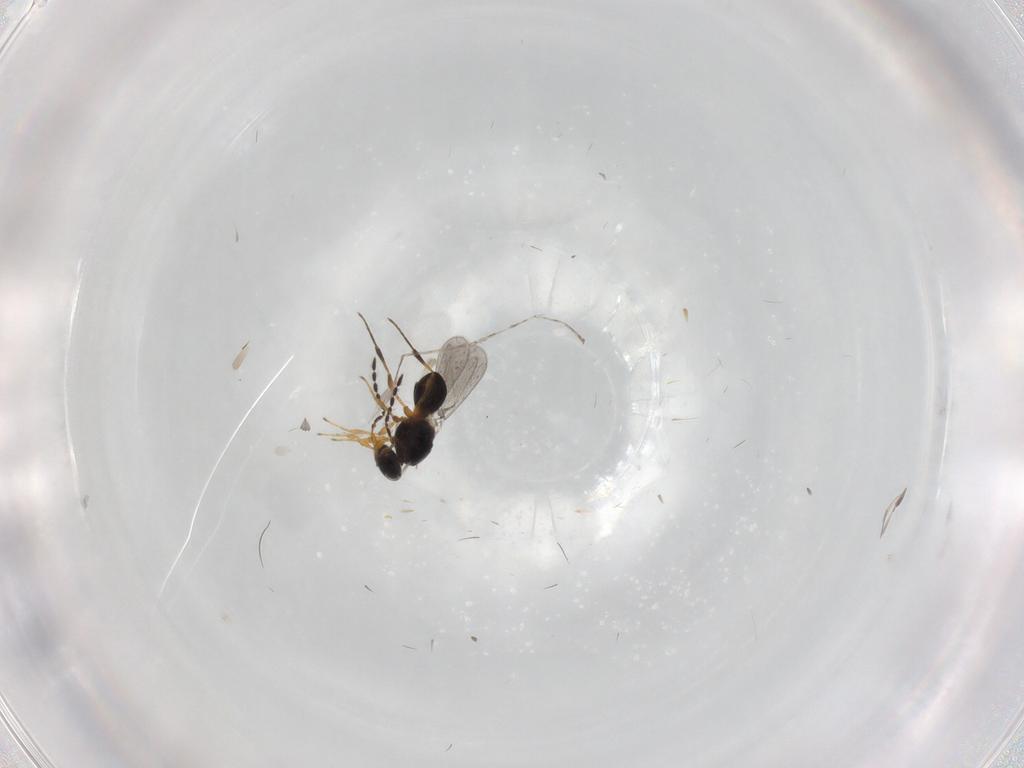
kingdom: Animalia
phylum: Arthropoda
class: Insecta
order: Hymenoptera
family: Platygastridae
